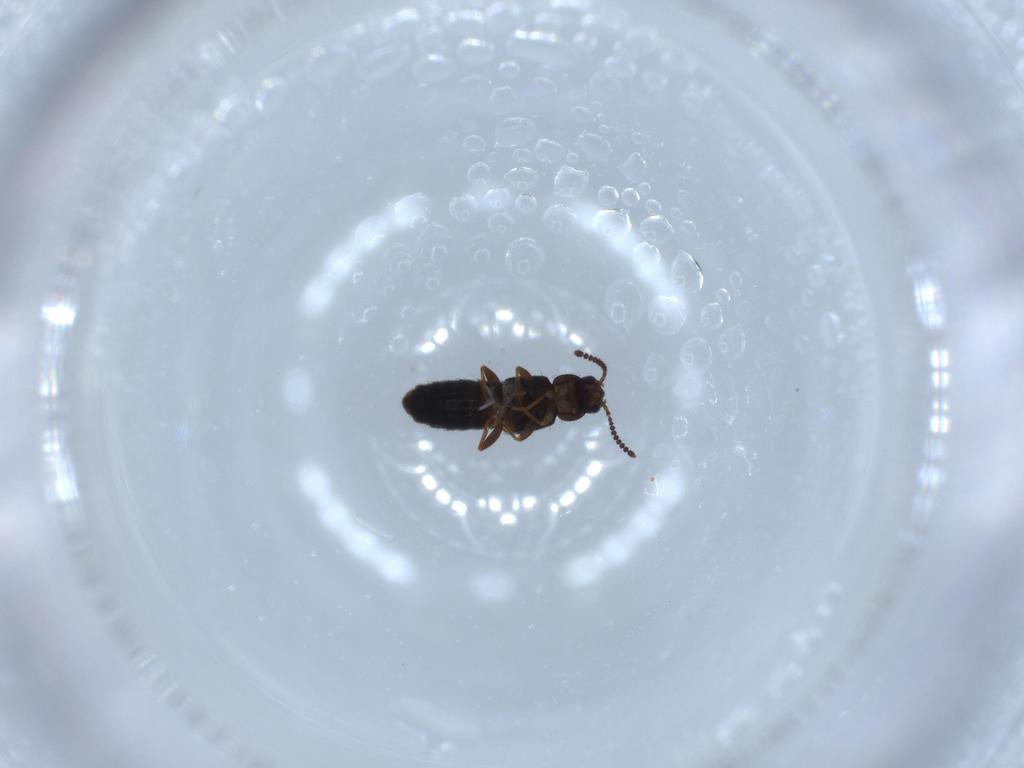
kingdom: Animalia
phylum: Arthropoda
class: Insecta
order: Coleoptera
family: Staphylinidae
